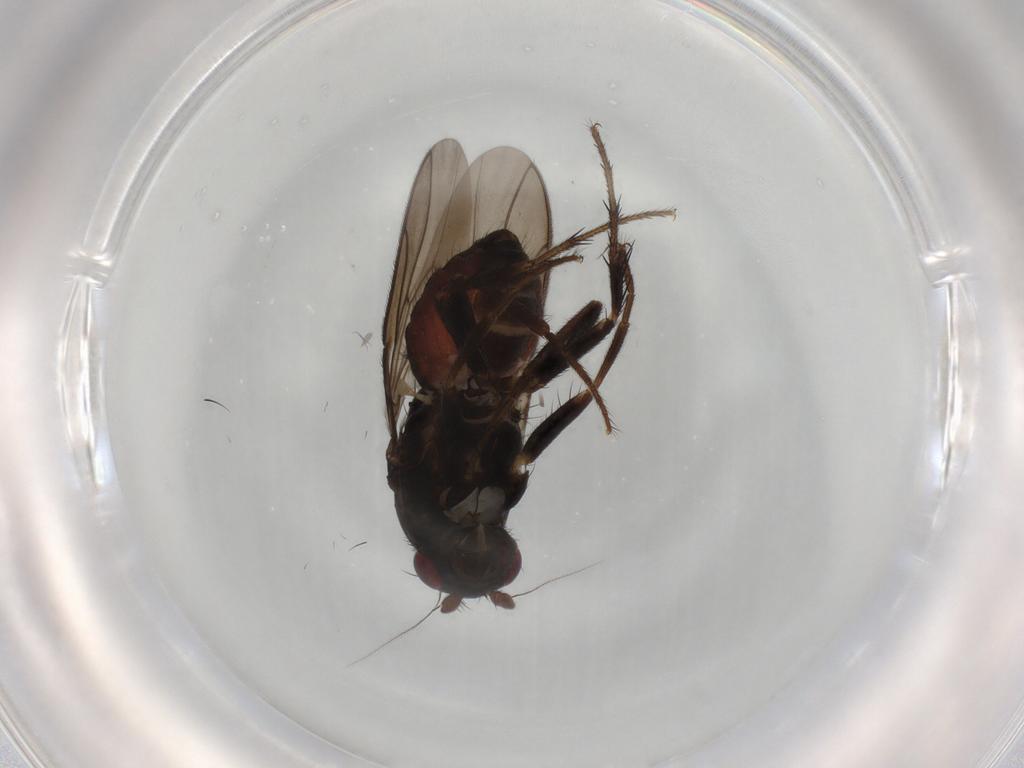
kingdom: Animalia
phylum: Arthropoda
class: Insecta
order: Diptera
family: Sphaeroceridae
